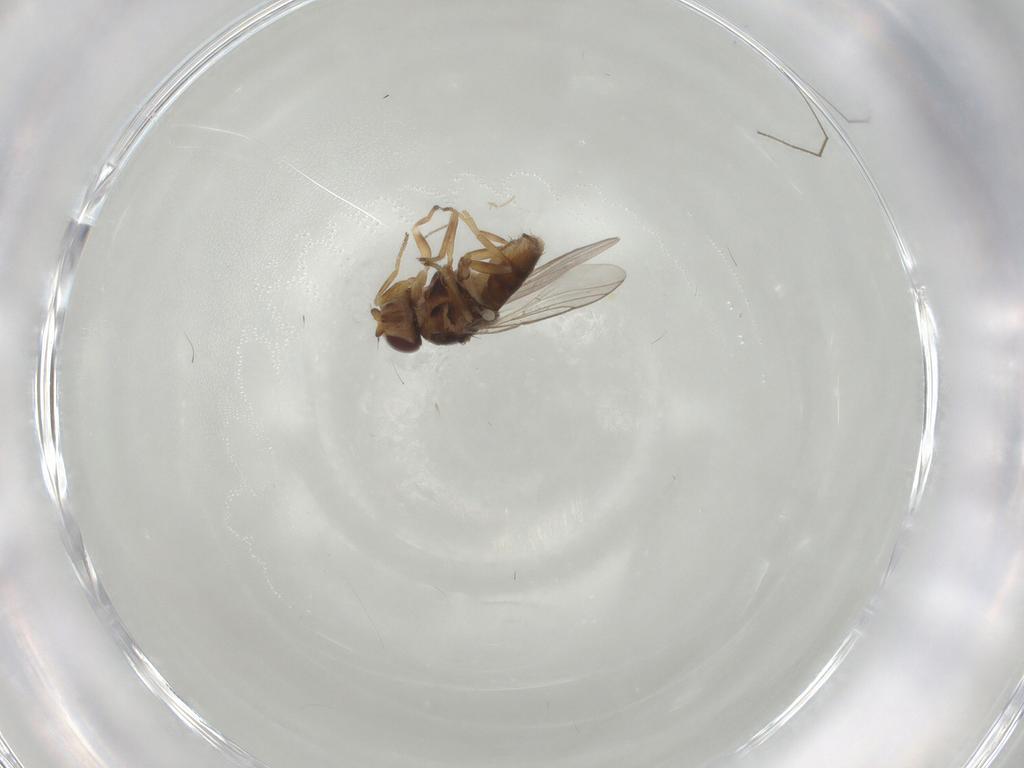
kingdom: Animalia
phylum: Arthropoda
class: Insecta
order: Diptera
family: Chloropidae
